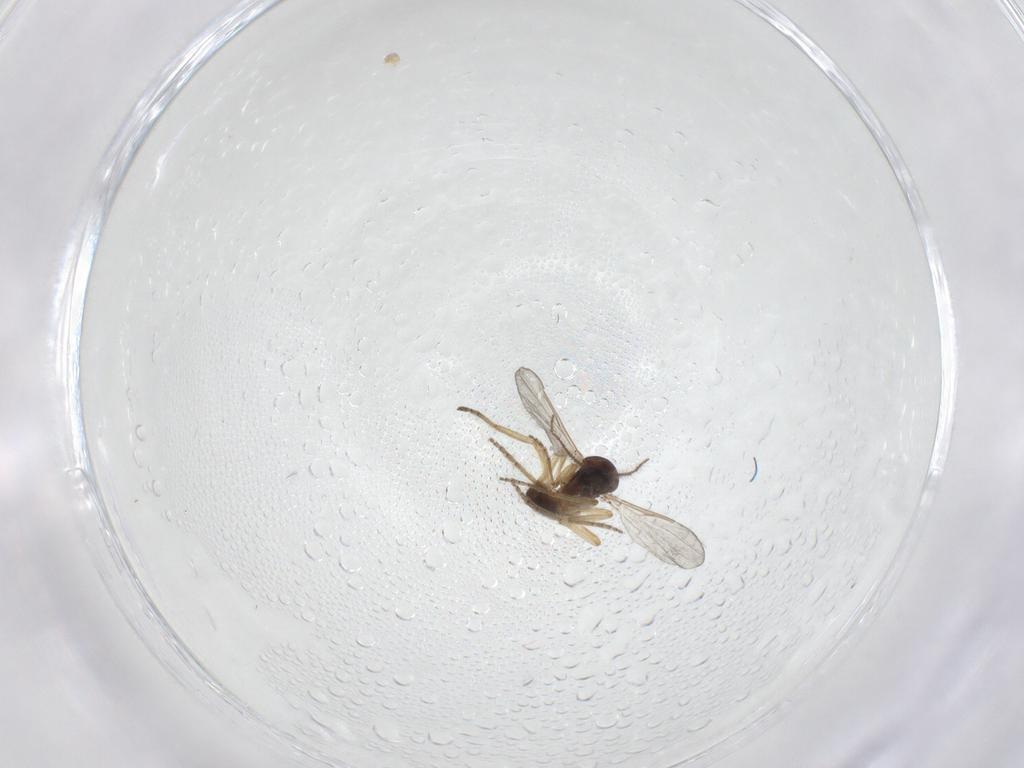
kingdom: Animalia
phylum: Arthropoda
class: Insecta
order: Diptera
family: Ceratopogonidae
